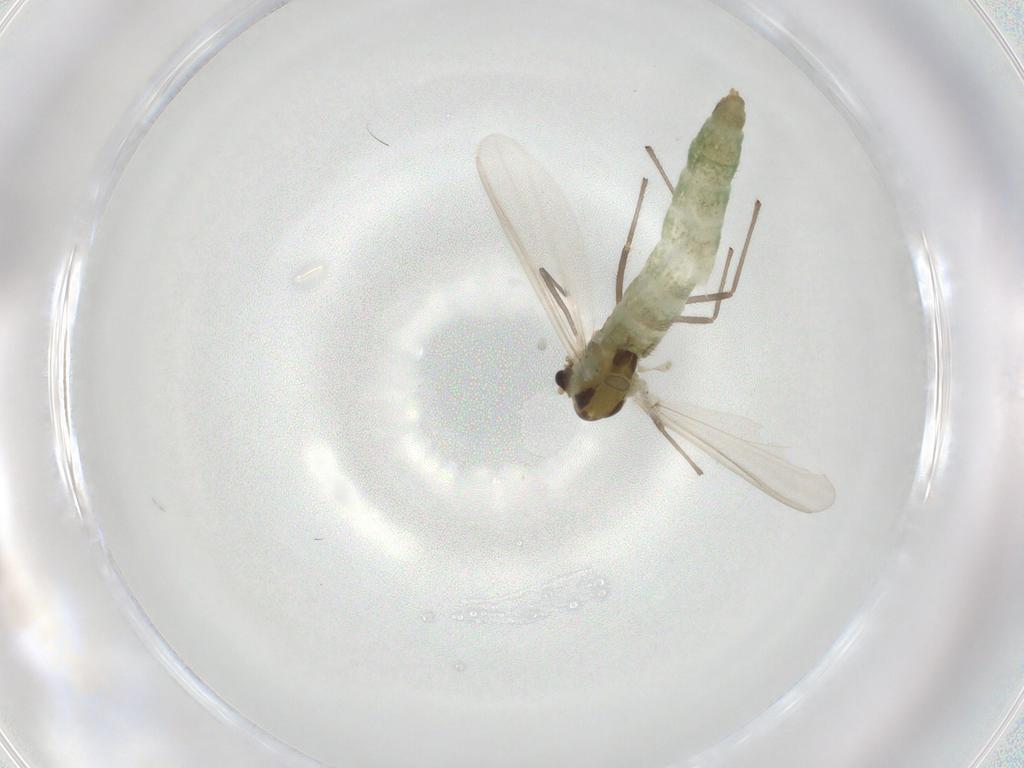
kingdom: Animalia
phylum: Arthropoda
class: Insecta
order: Diptera
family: Chironomidae
